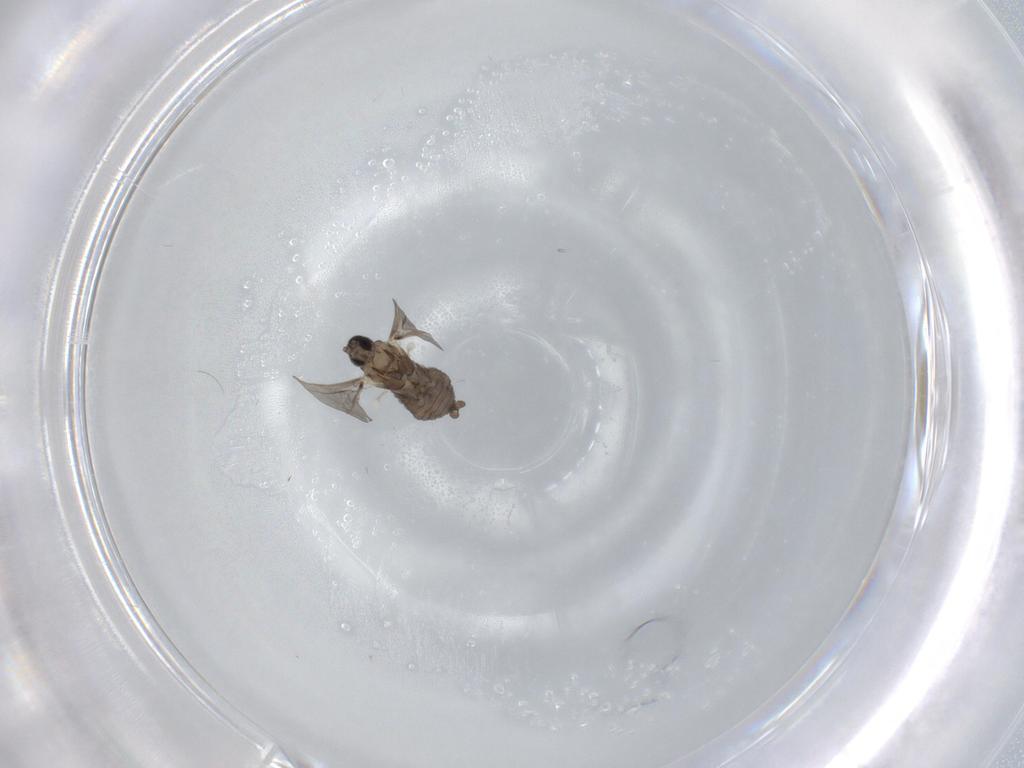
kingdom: Animalia
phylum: Arthropoda
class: Insecta
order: Diptera
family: Cecidomyiidae
